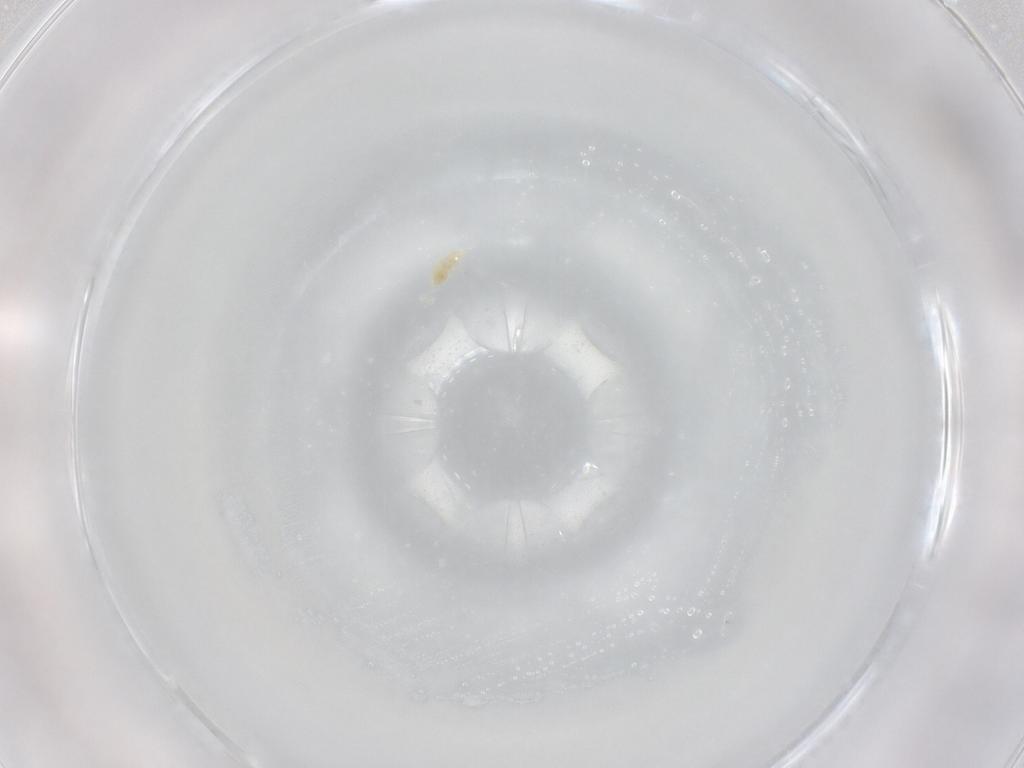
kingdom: Animalia
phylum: Arthropoda
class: Arachnida
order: Trombidiformes
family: Eupodidae
